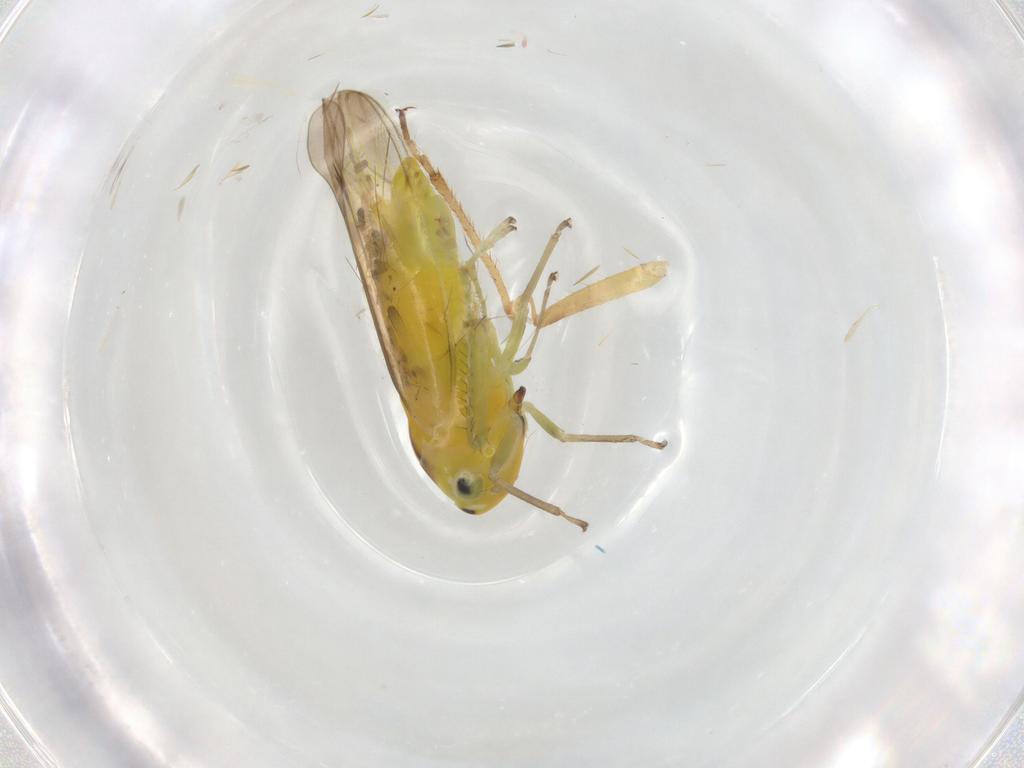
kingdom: Animalia
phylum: Arthropoda
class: Insecta
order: Hemiptera
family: Cicadellidae
